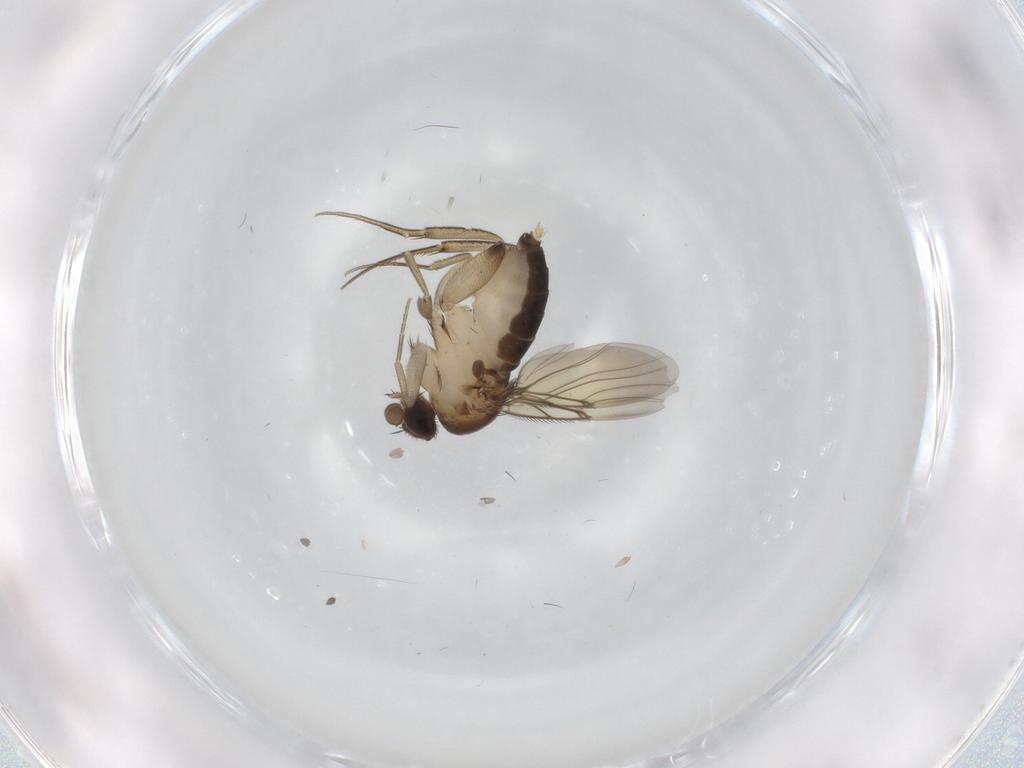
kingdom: Animalia
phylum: Arthropoda
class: Insecta
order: Diptera
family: Phoridae
